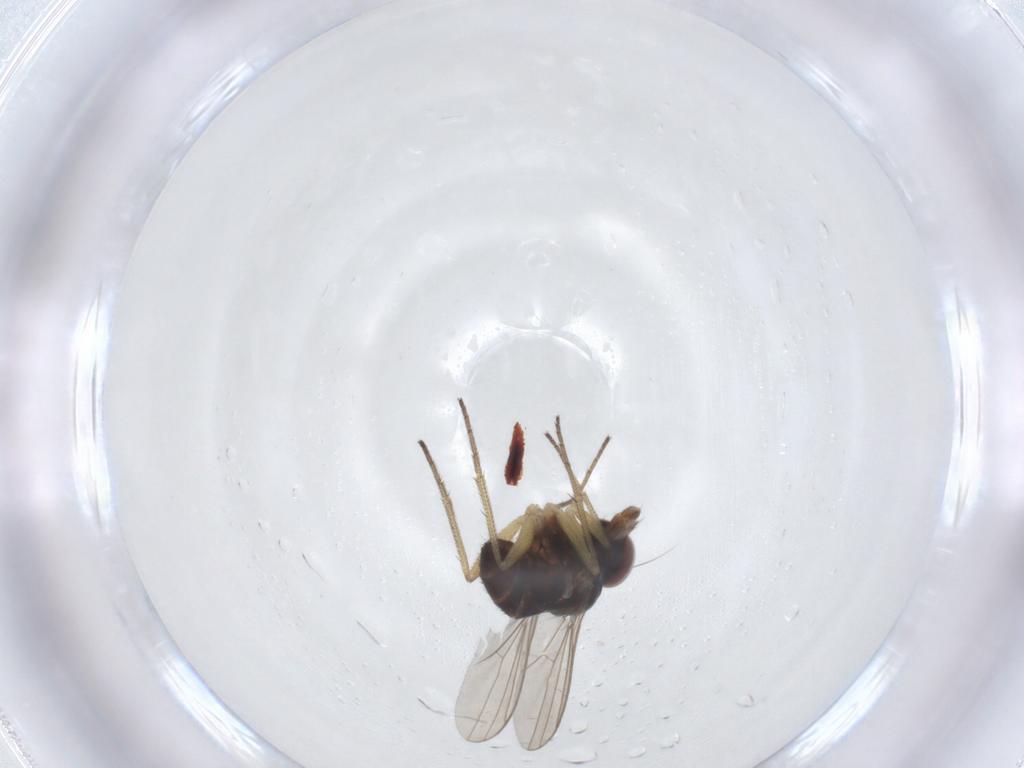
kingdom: Animalia
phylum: Arthropoda
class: Insecta
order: Diptera
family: Dolichopodidae
